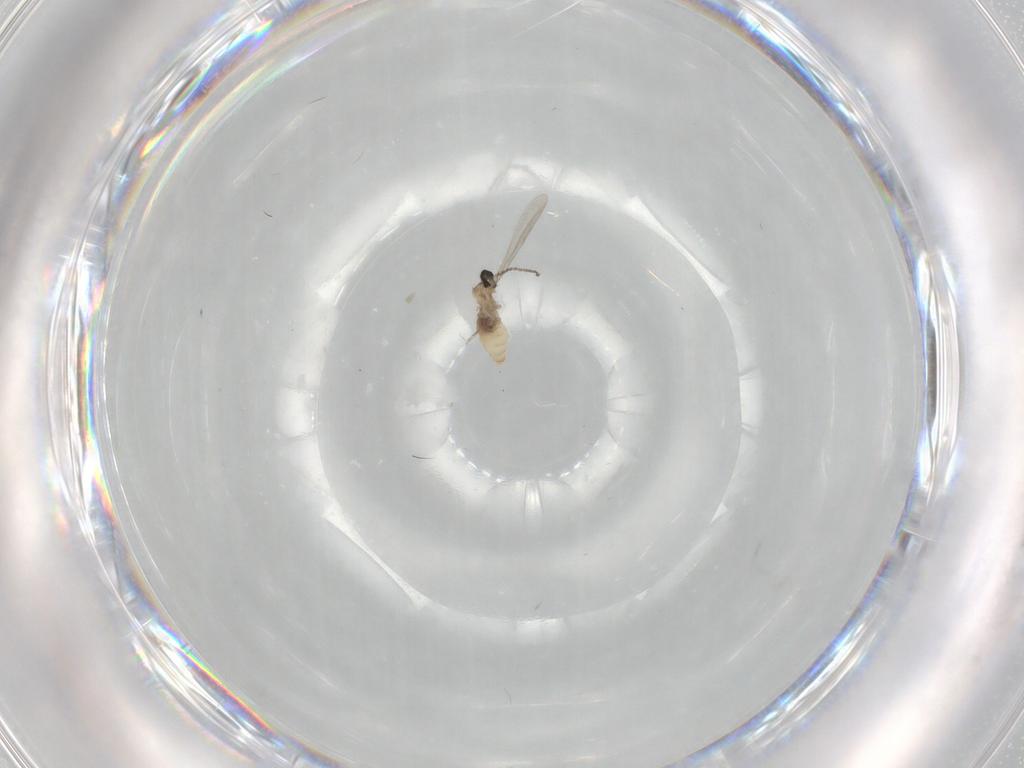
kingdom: Animalia
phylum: Arthropoda
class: Insecta
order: Diptera
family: Cecidomyiidae
